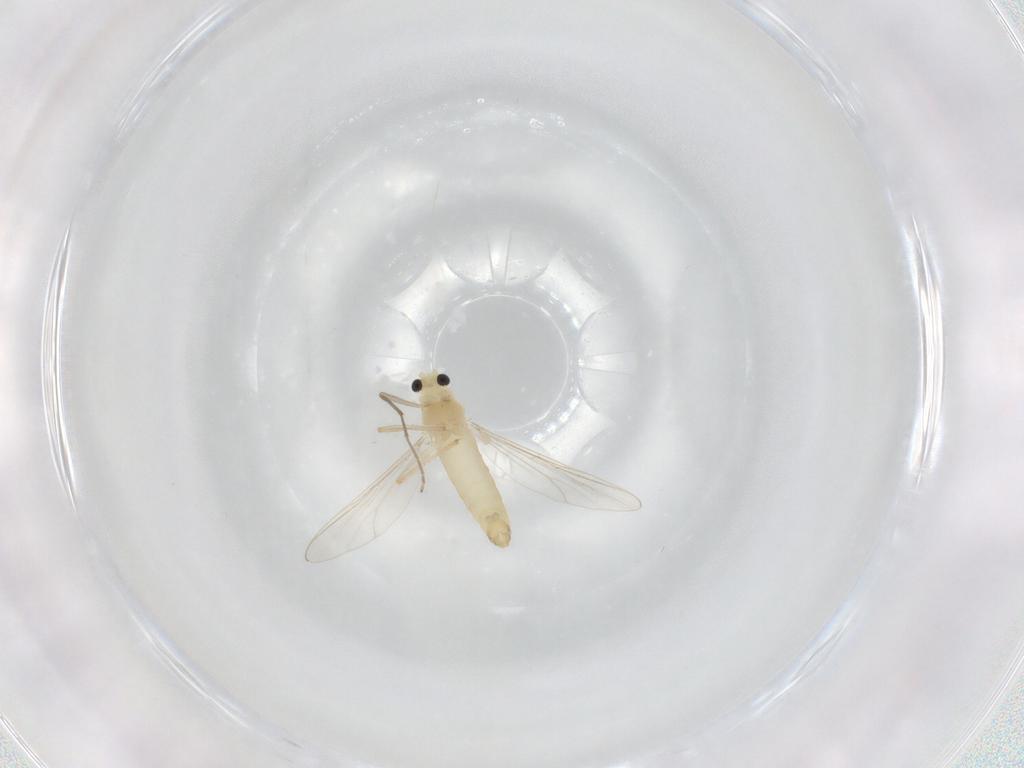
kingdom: Animalia
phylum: Arthropoda
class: Insecta
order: Diptera
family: Chironomidae
